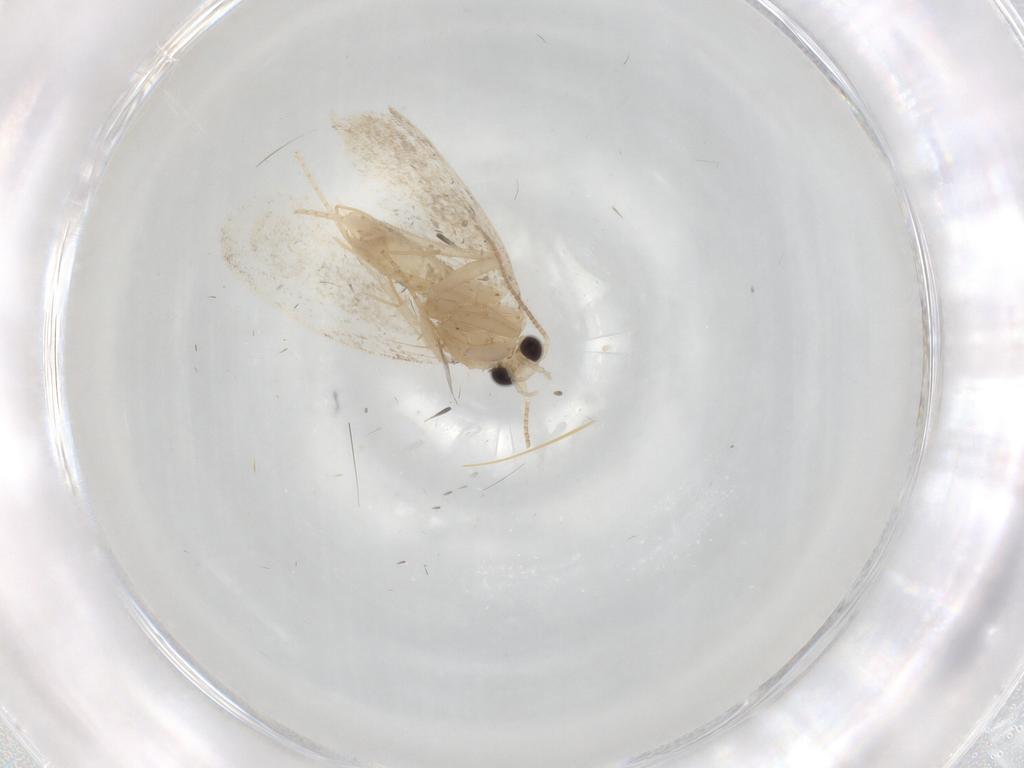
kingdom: Animalia
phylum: Arthropoda
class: Insecta
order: Lepidoptera
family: Psychidae
